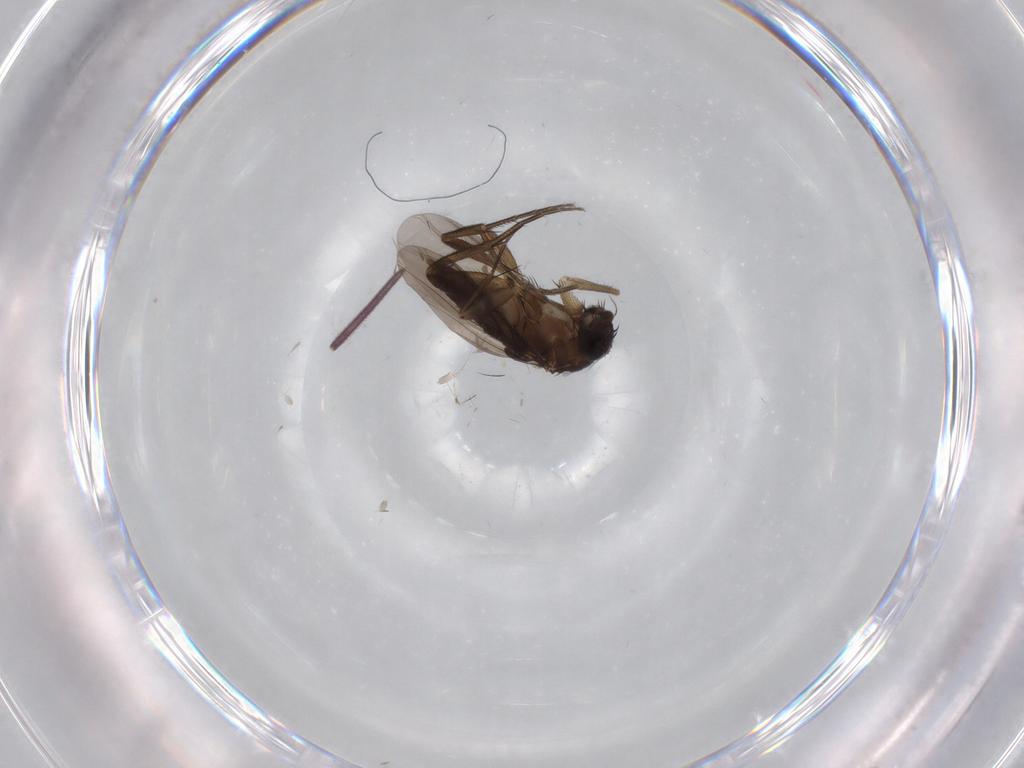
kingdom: Animalia
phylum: Arthropoda
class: Insecta
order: Diptera
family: Phoridae
